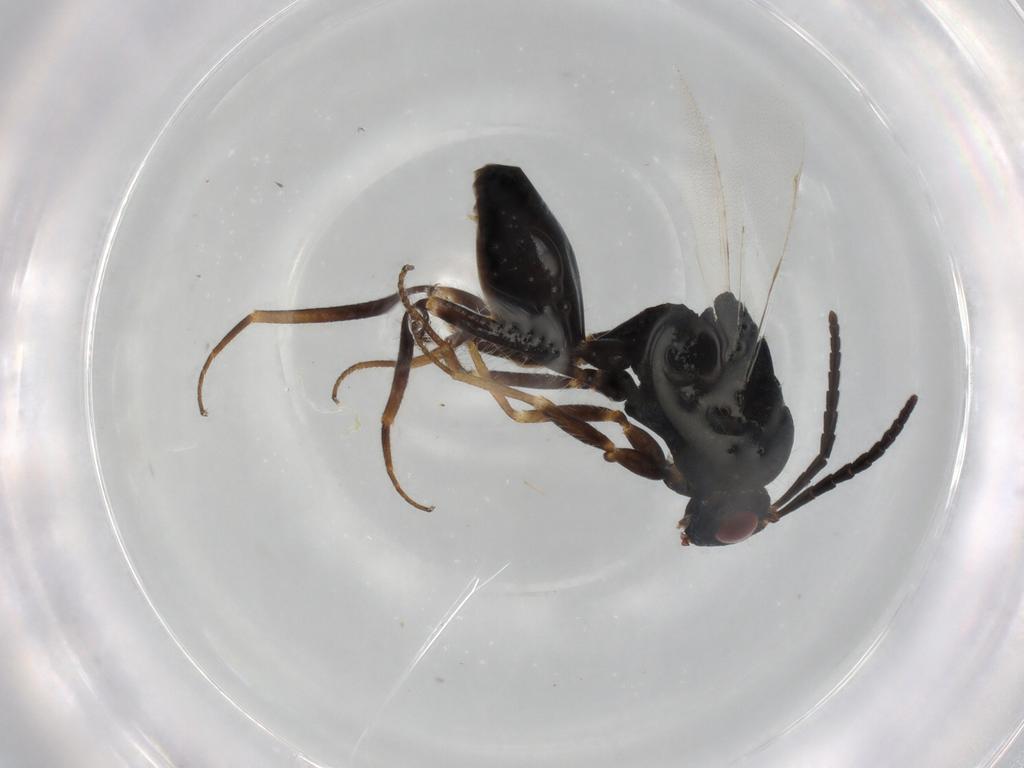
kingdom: Animalia
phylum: Arthropoda
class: Insecta
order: Hymenoptera
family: Eucharitidae
